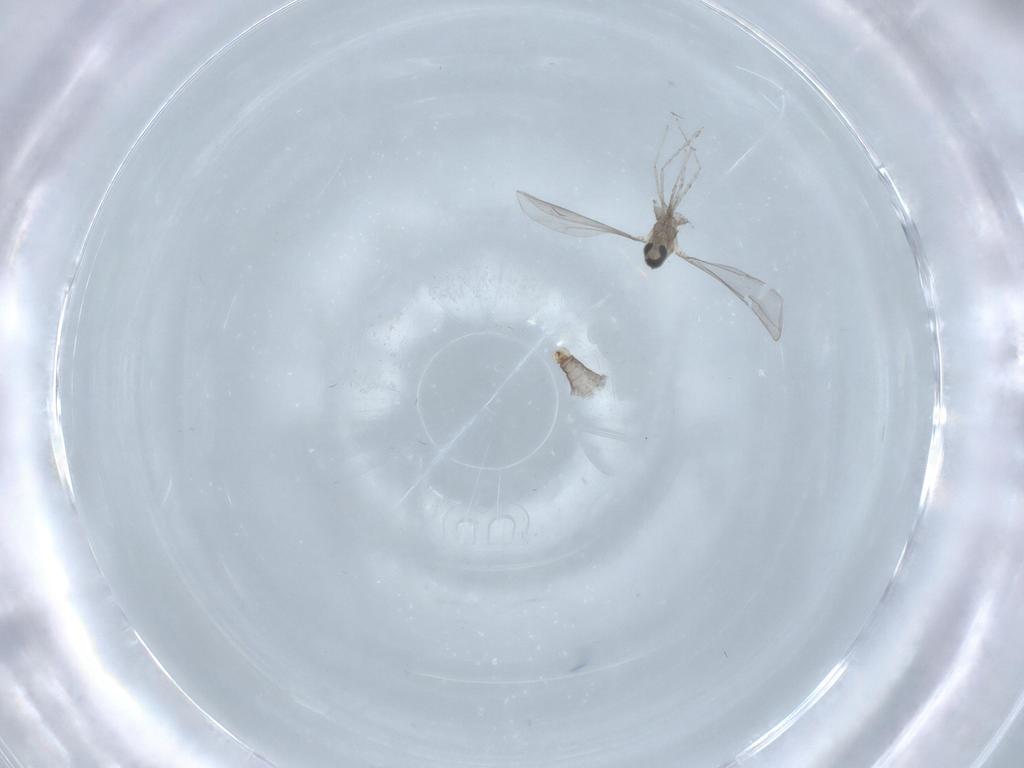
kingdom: Animalia
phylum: Arthropoda
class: Insecta
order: Diptera
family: Cecidomyiidae
